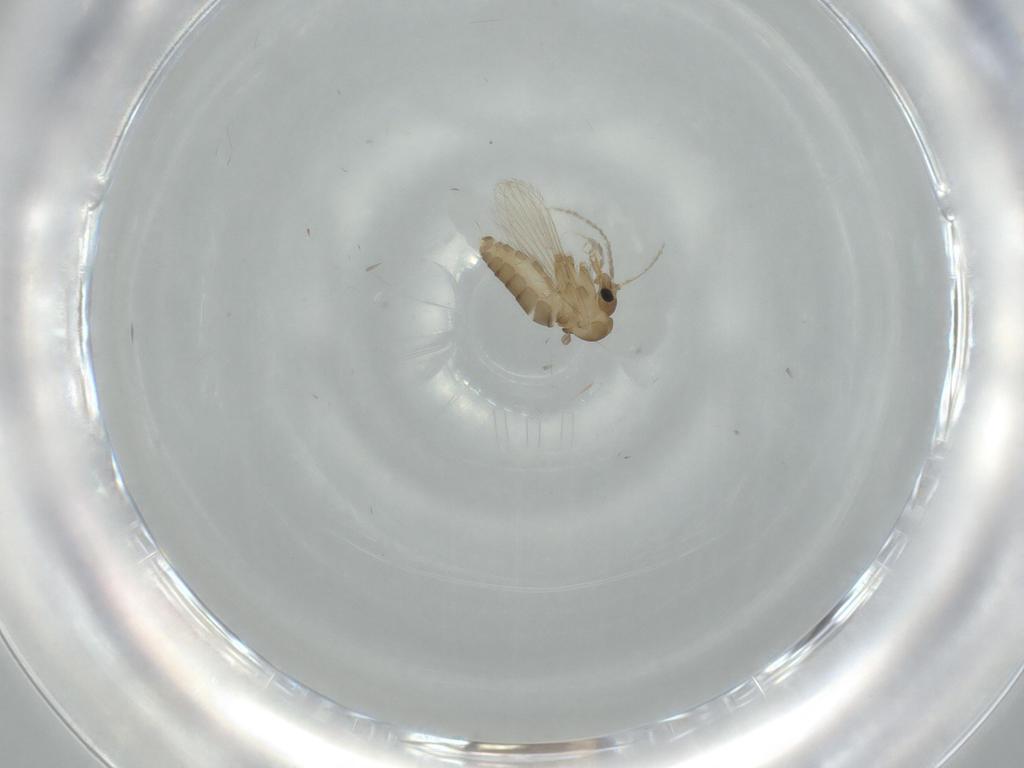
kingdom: Animalia
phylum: Arthropoda
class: Insecta
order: Diptera
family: Psychodidae
